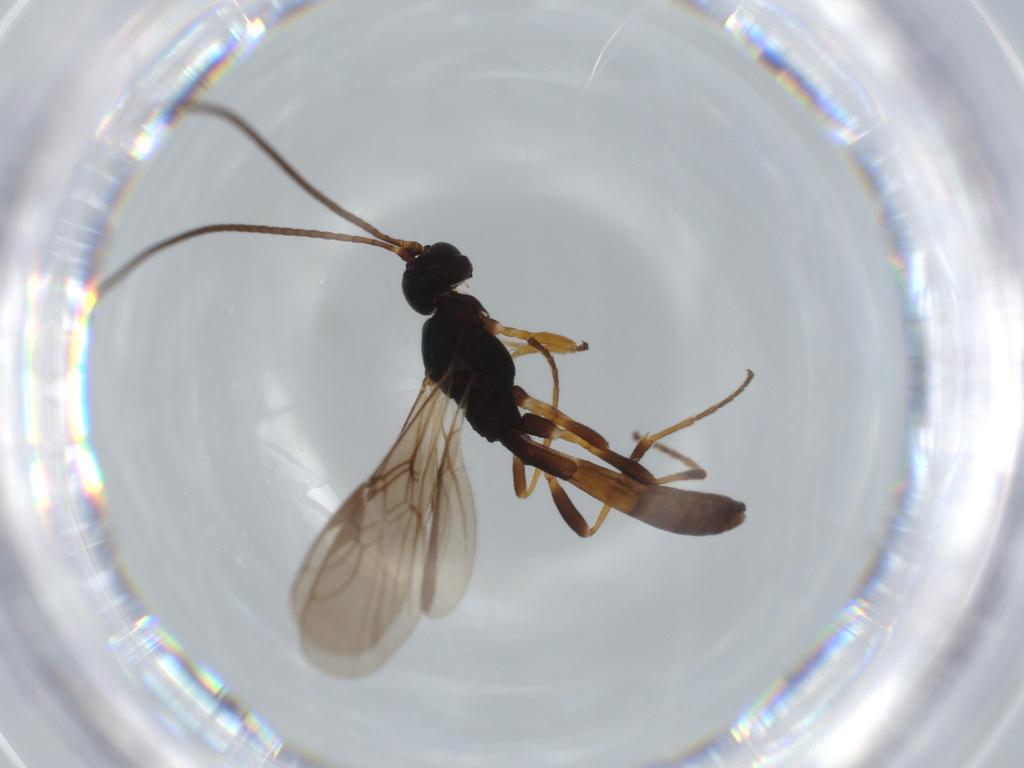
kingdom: Animalia
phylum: Arthropoda
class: Insecta
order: Hymenoptera
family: Braconidae
